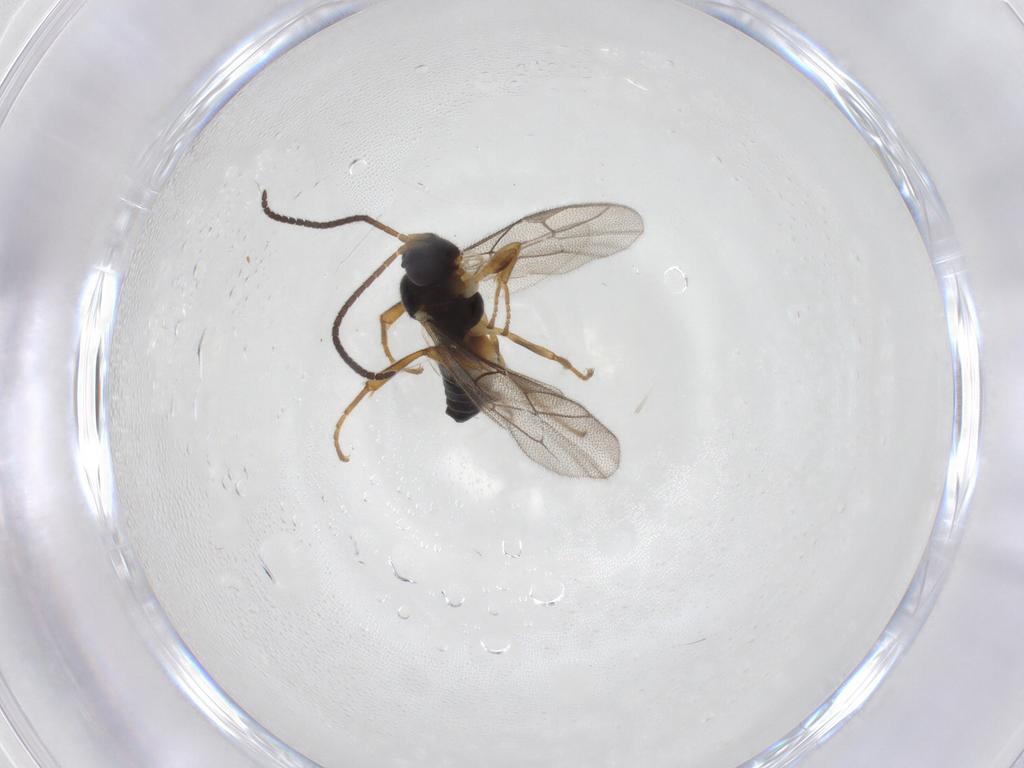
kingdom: Animalia
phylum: Arthropoda
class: Insecta
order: Hymenoptera
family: Ichneumonidae
